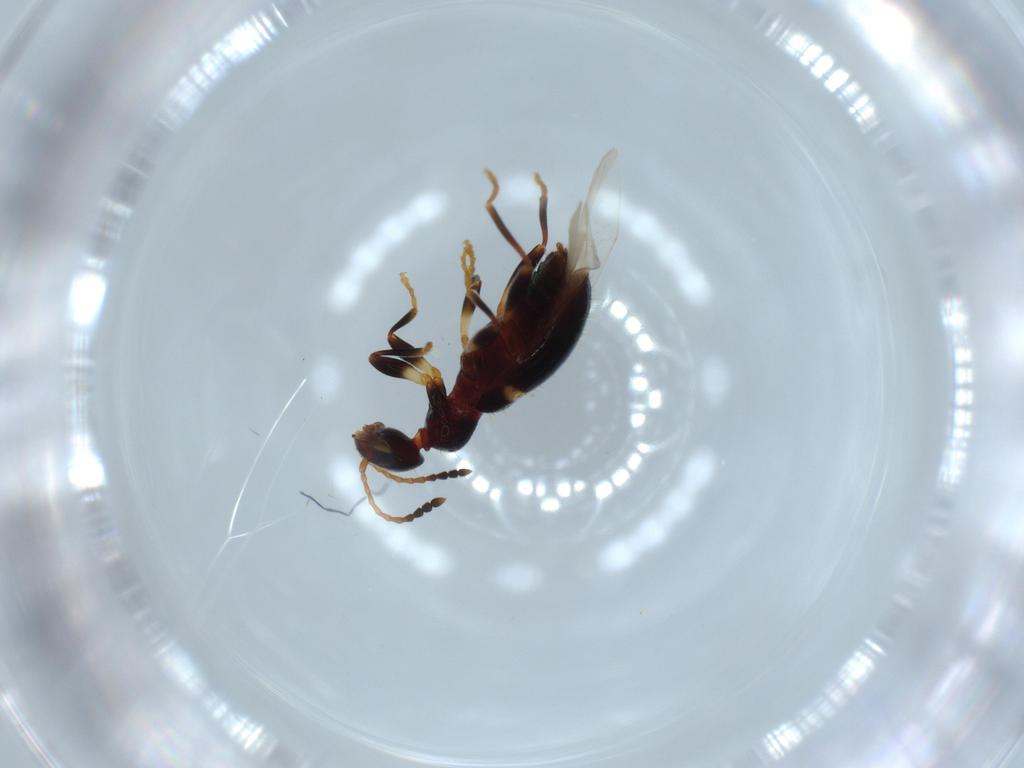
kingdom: Animalia
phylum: Arthropoda
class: Insecta
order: Coleoptera
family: Anthicidae
